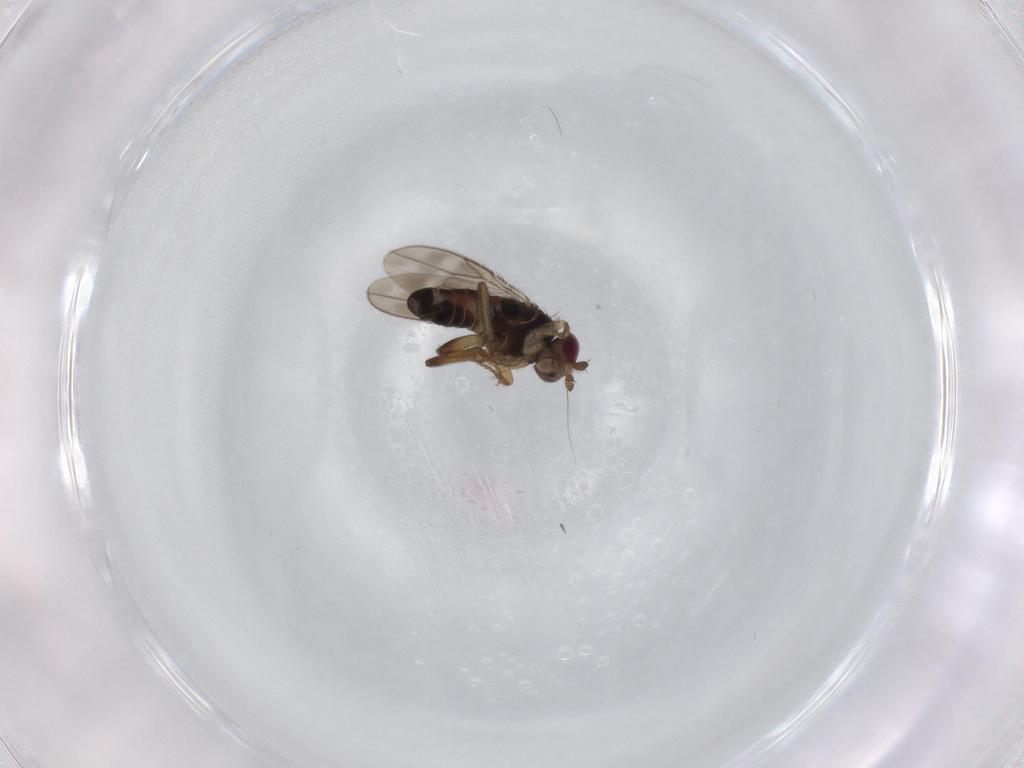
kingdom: Animalia
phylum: Arthropoda
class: Insecta
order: Diptera
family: Sphaeroceridae
